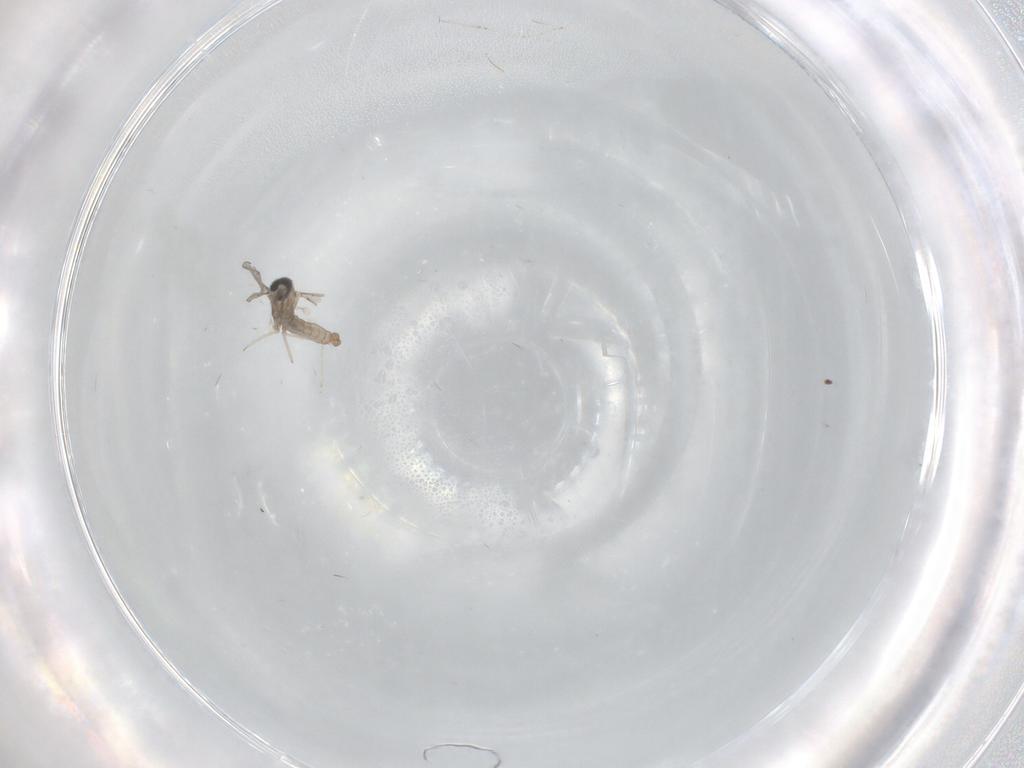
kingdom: Animalia
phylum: Arthropoda
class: Insecta
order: Diptera
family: Cecidomyiidae
